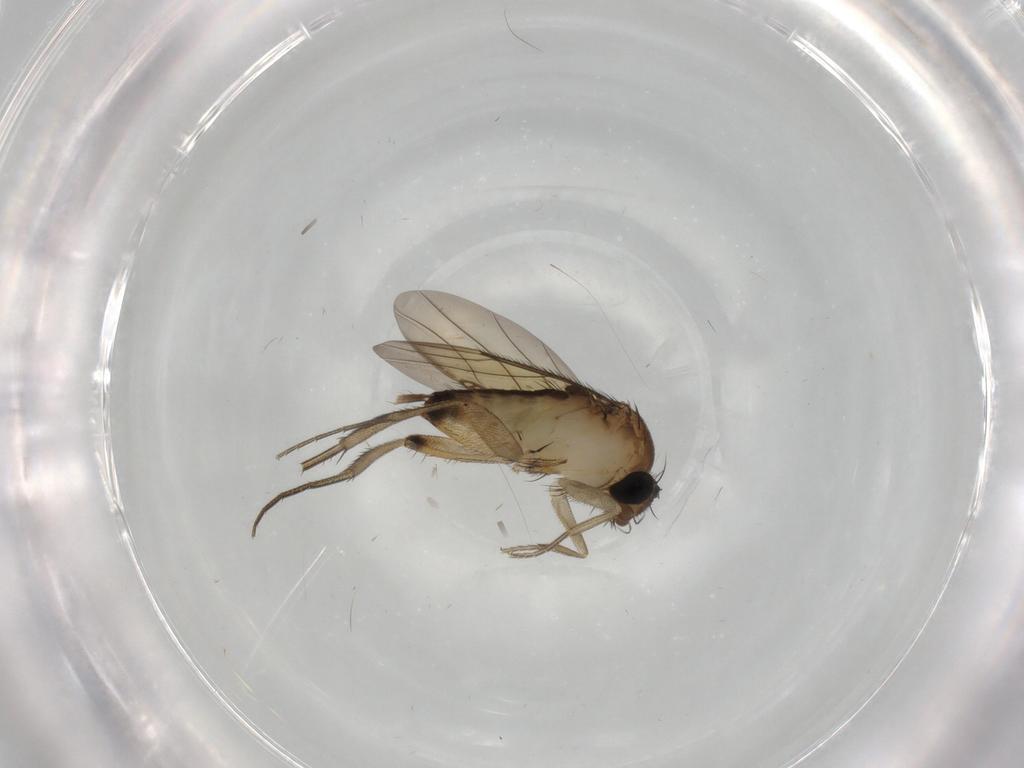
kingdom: Animalia
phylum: Arthropoda
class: Insecta
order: Diptera
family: Phoridae
